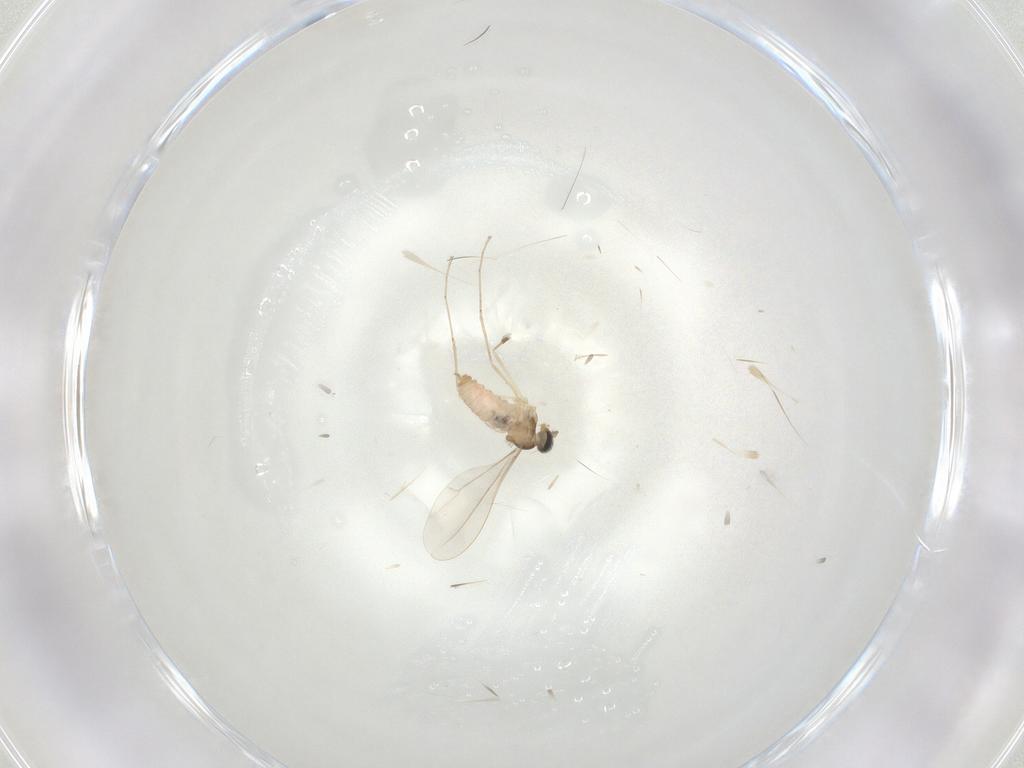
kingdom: Animalia
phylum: Arthropoda
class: Insecta
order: Diptera
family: Cecidomyiidae
